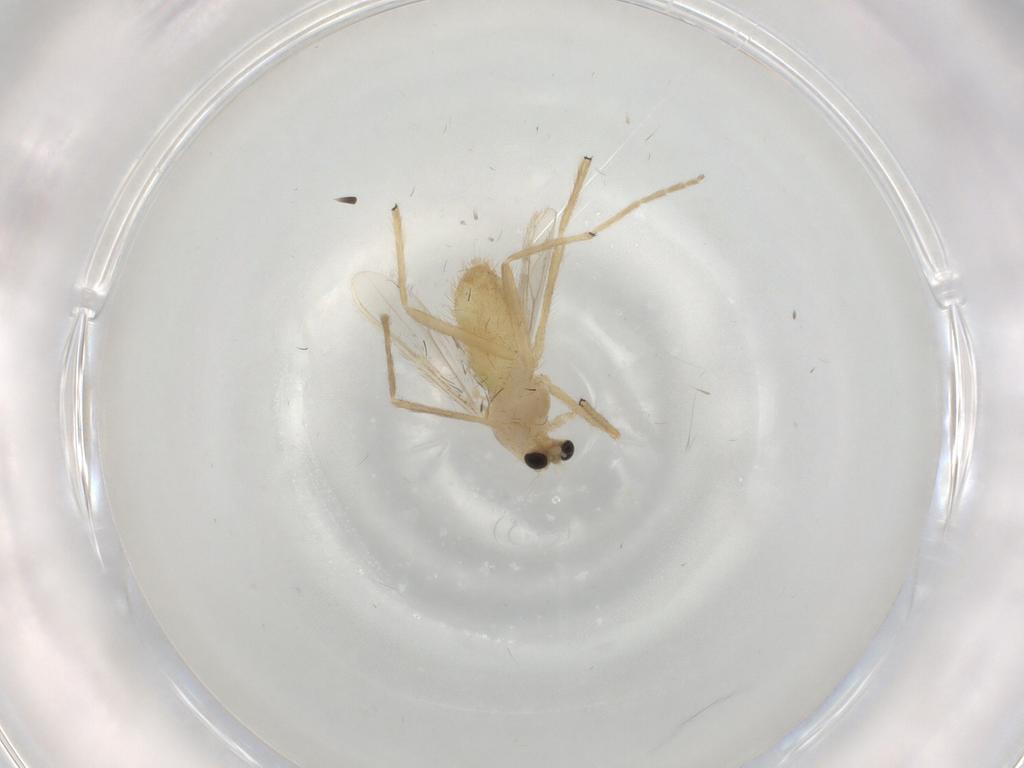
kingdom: Animalia
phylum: Arthropoda
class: Insecta
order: Diptera
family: Chironomidae
